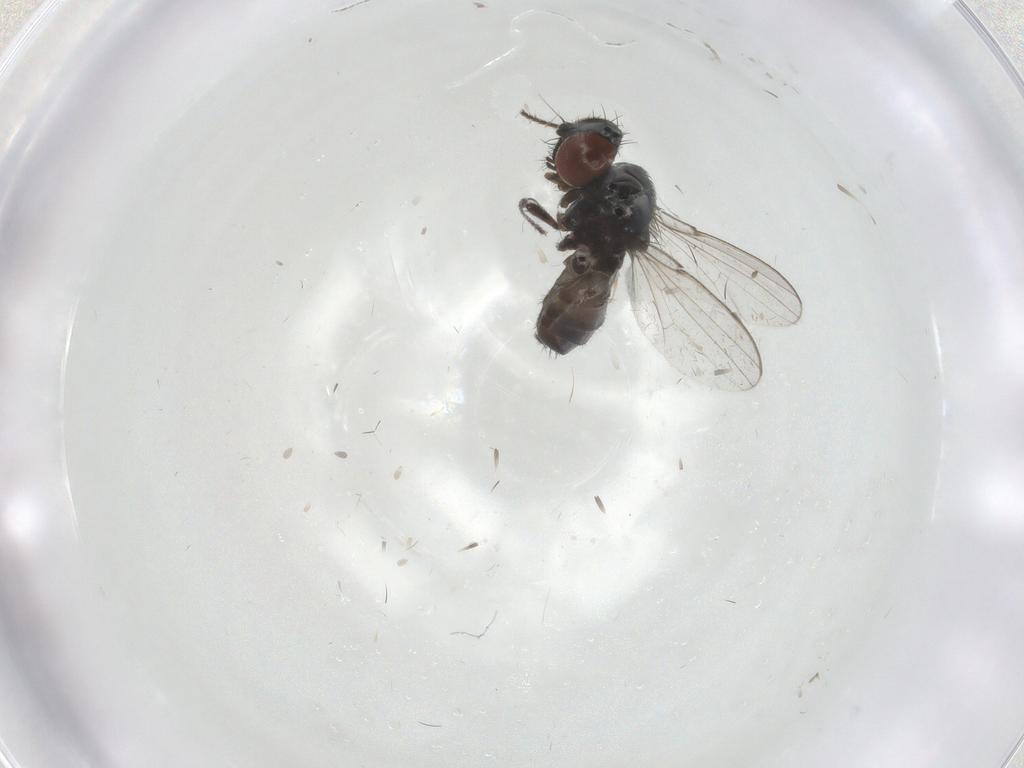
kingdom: Animalia
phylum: Arthropoda
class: Insecta
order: Diptera
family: Milichiidae
